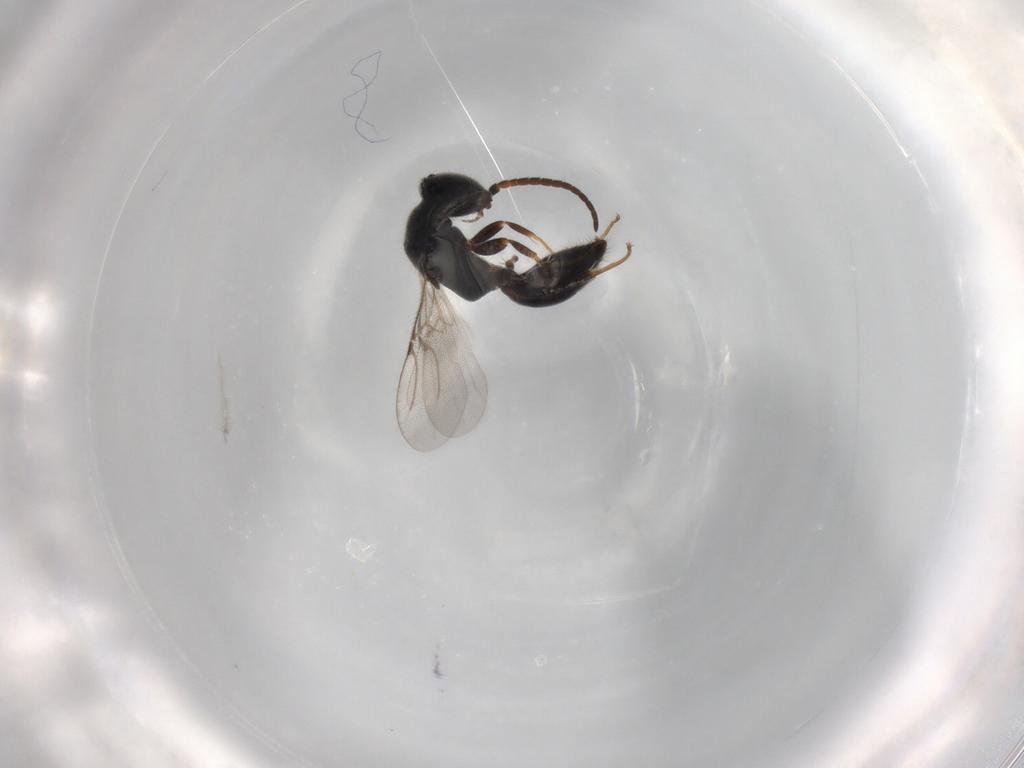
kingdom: Animalia
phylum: Arthropoda
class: Insecta
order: Hymenoptera
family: Bethylidae
